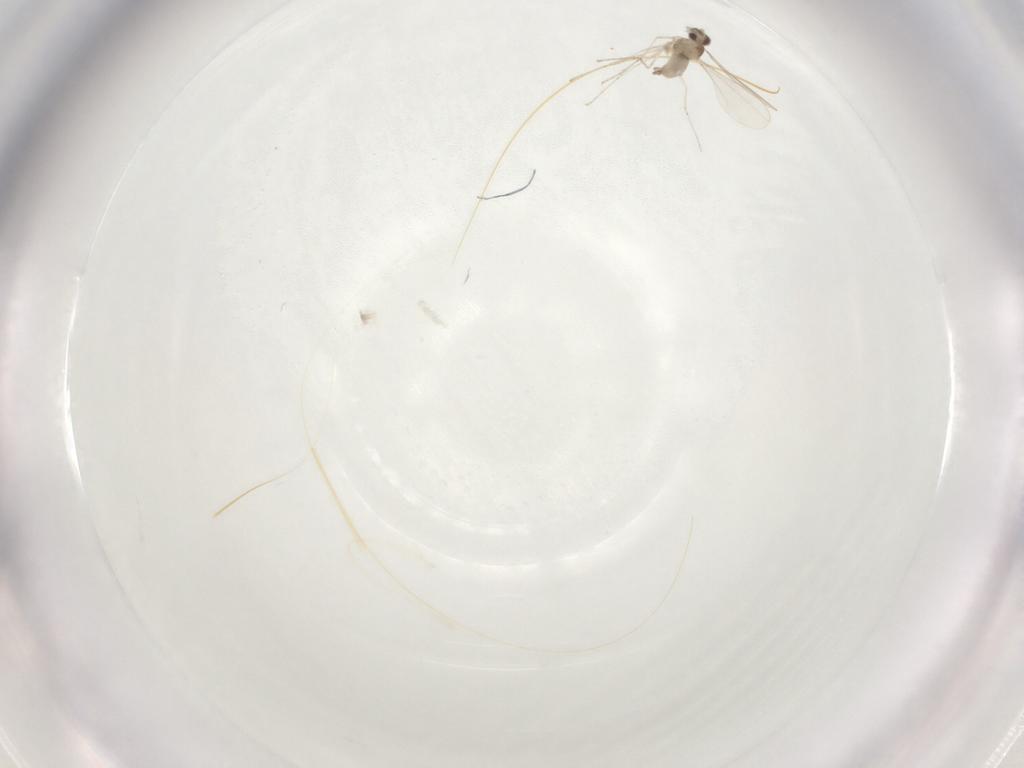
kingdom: Animalia
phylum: Arthropoda
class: Insecta
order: Diptera
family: Cecidomyiidae
